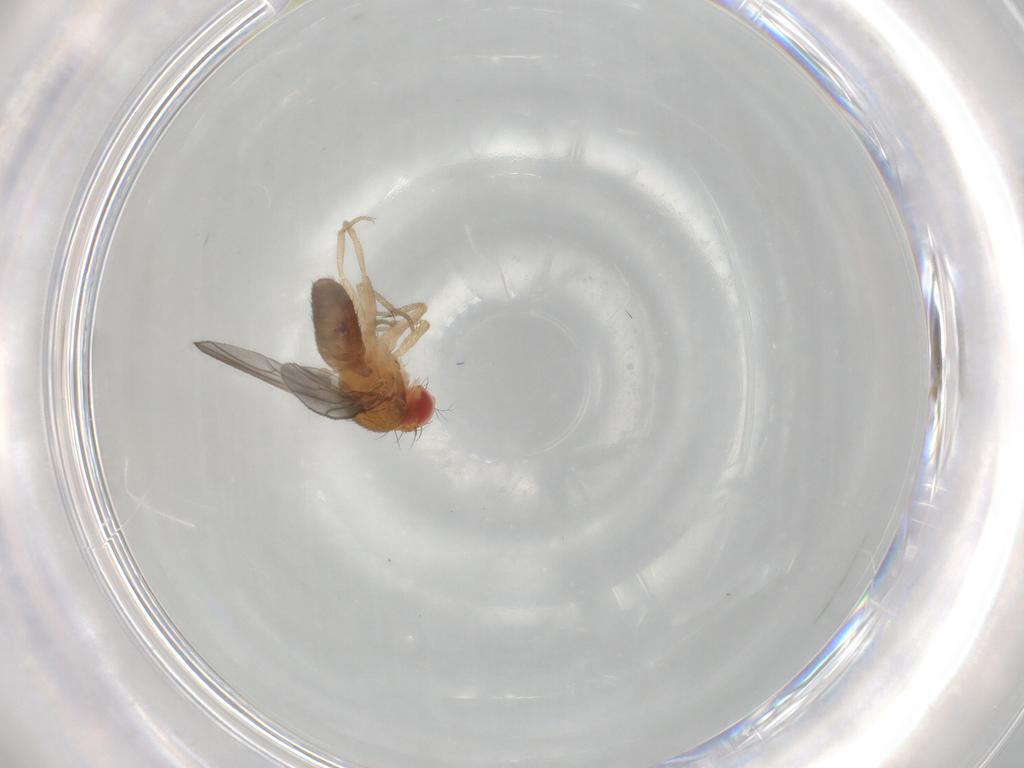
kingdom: Animalia
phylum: Arthropoda
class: Insecta
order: Diptera
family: Drosophilidae
